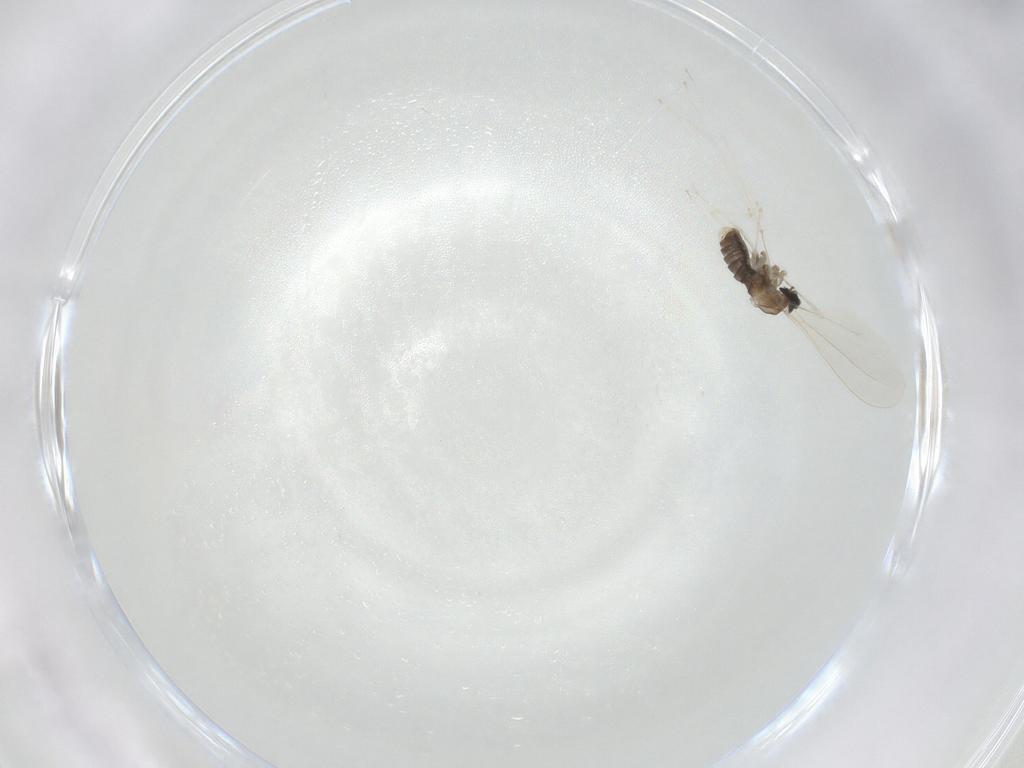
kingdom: Animalia
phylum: Arthropoda
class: Insecta
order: Diptera
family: Cecidomyiidae
